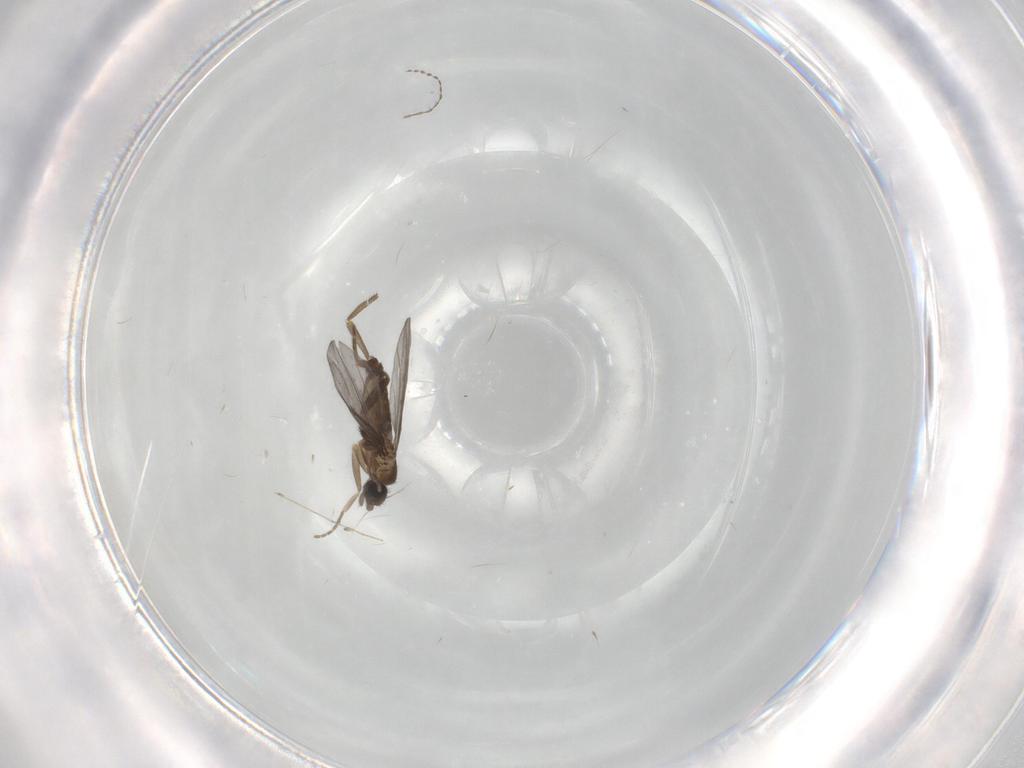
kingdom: Animalia
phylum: Arthropoda
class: Insecta
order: Diptera
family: Phoridae
